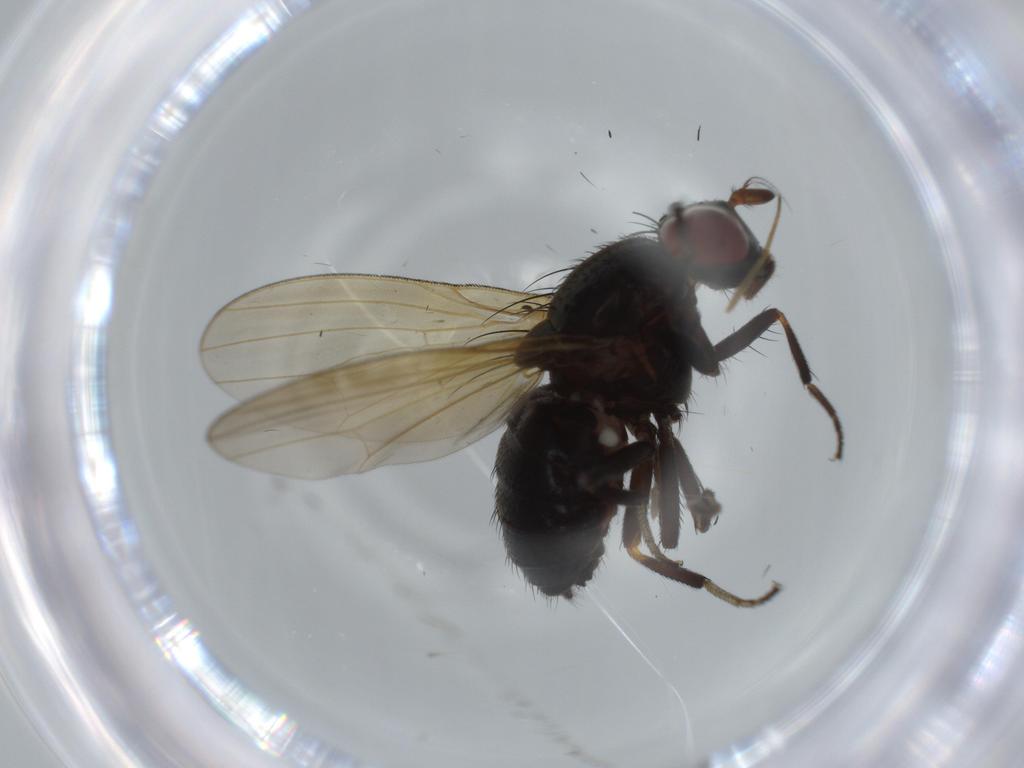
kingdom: Animalia
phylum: Arthropoda
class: Insecta
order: Diptera
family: Lauxaniidae
